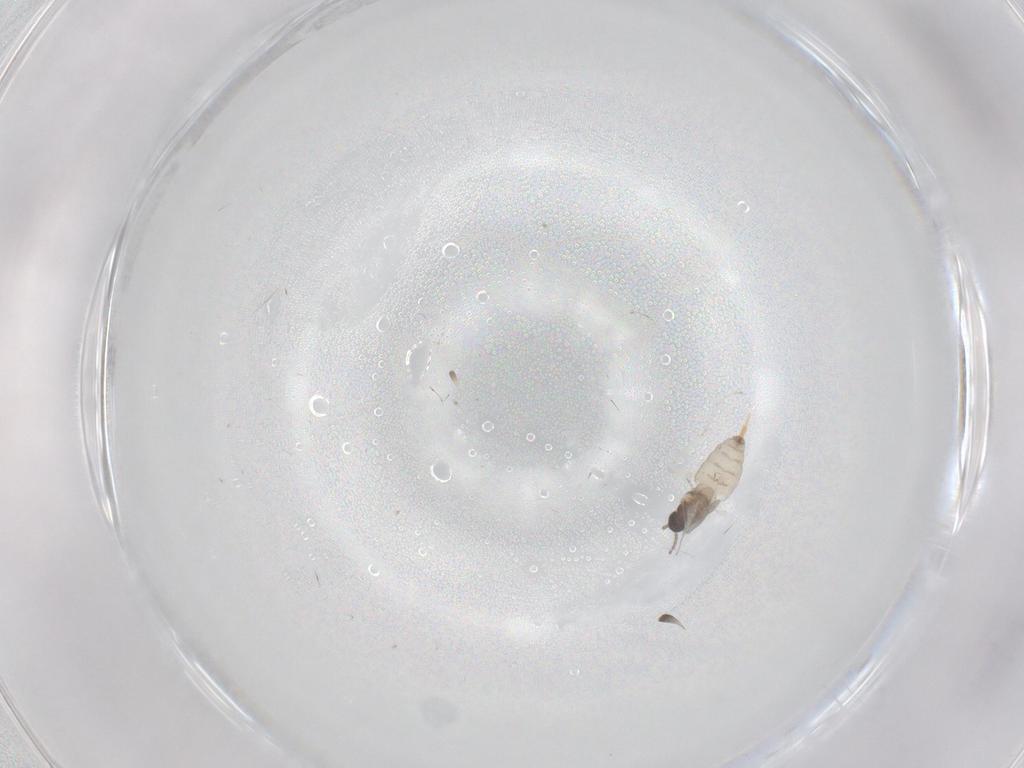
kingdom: Animalia
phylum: Arthropoda
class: Insecta
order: Diptera
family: Cecidomyiidae
